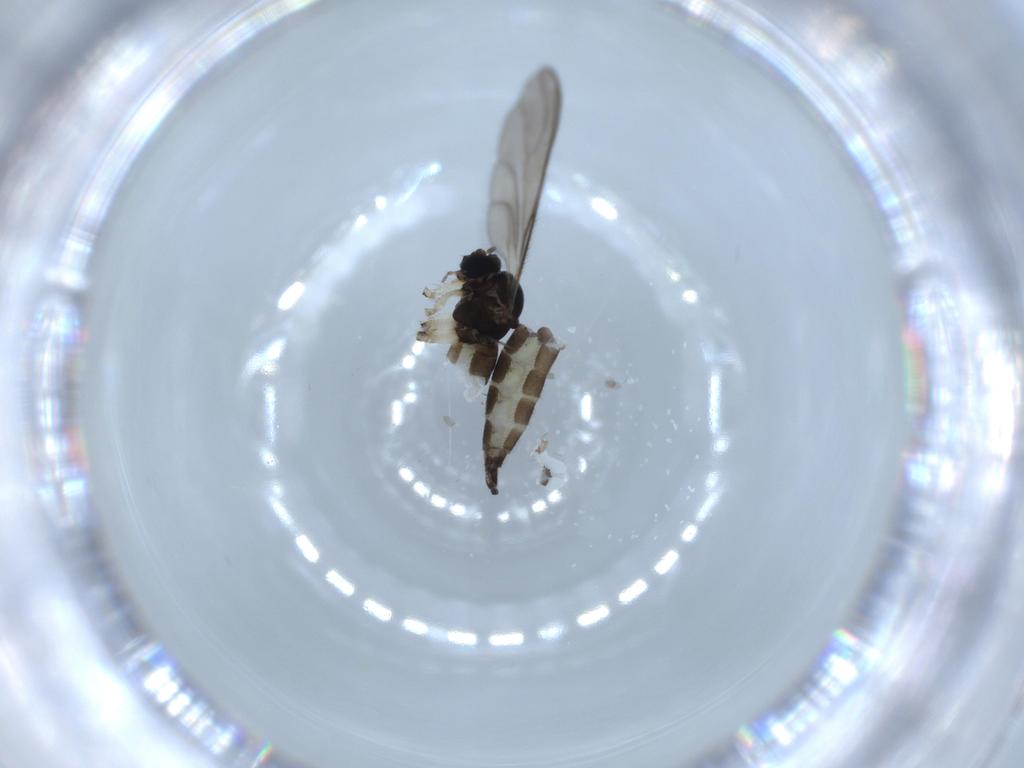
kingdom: Animalia
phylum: Arthropoda
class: Insecta
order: Diptera
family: Sciaridae
